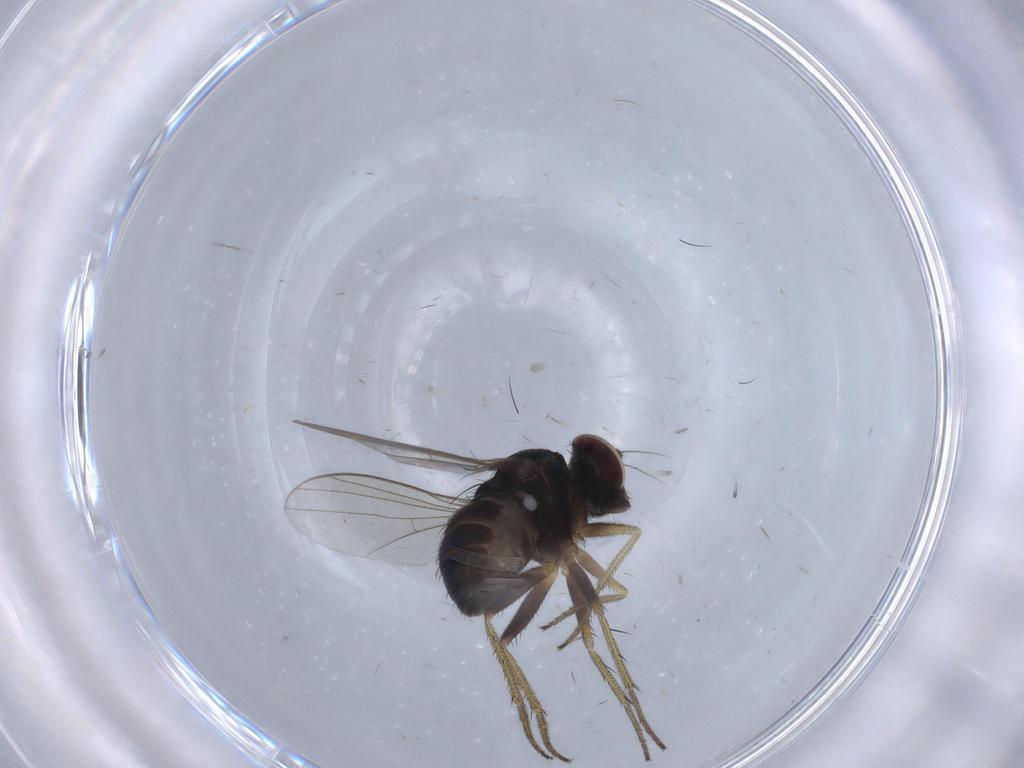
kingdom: Animalia
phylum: Arthropoda
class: Insecta
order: Diptera
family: Dolichopodidae
